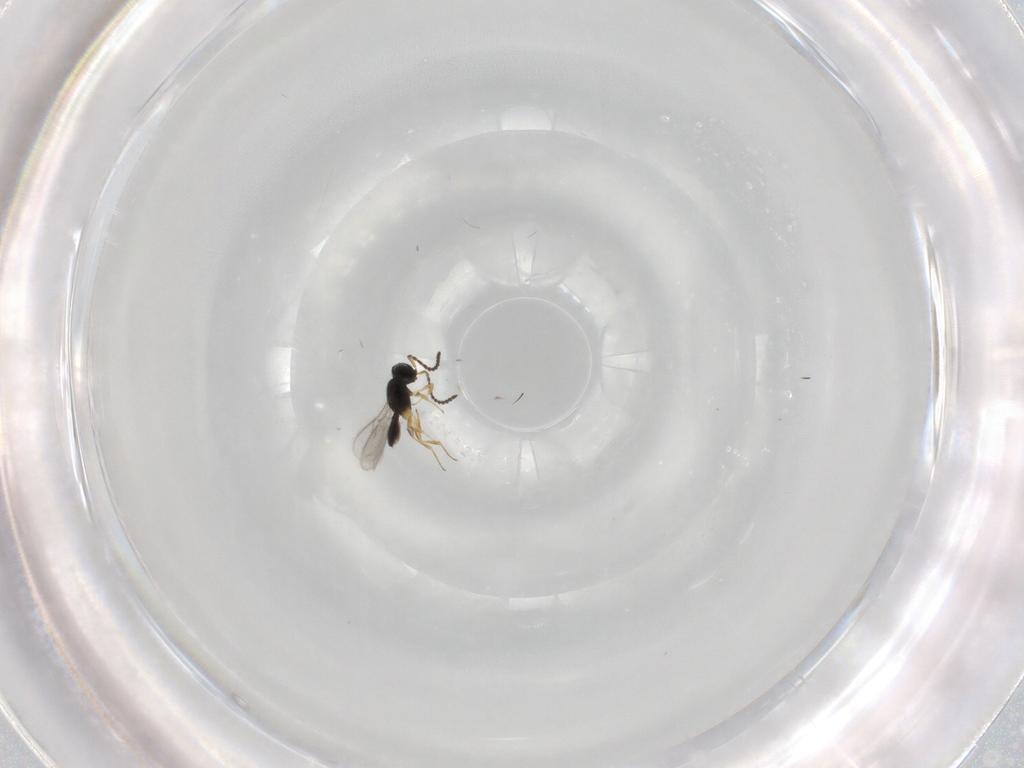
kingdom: Animalia
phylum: Arthropoda
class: Insecta
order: Hymenoptera
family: Scelionidae
